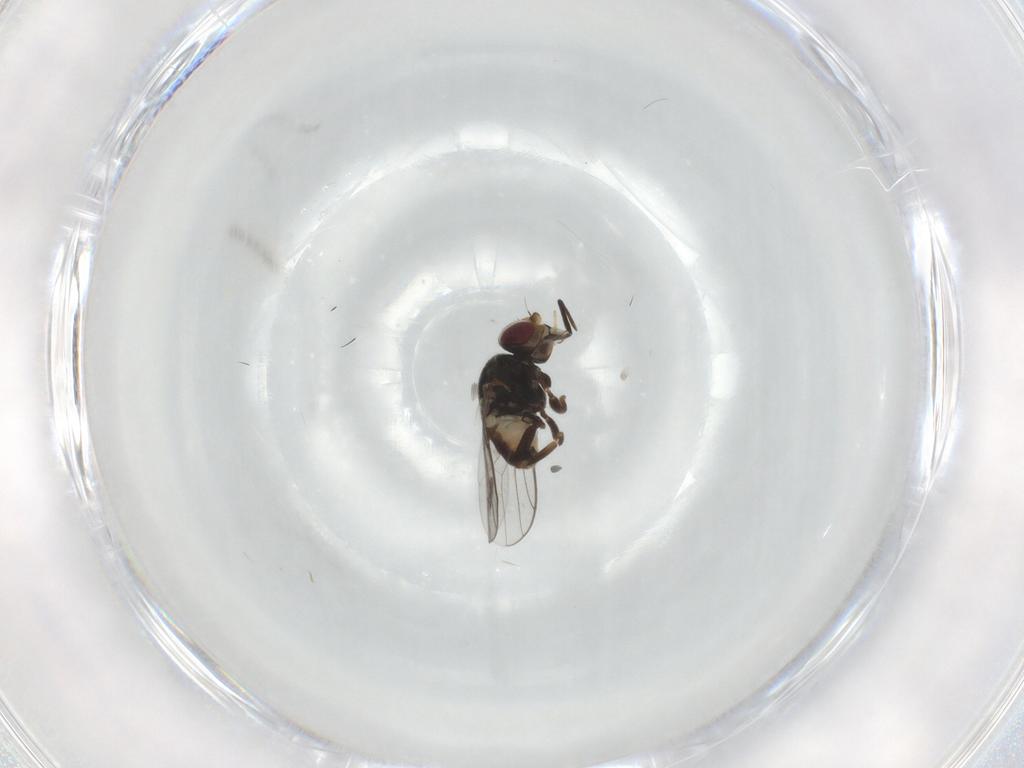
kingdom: Animalia
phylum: Arthropoda
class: Insecta
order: Diptera
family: Chloropidae
